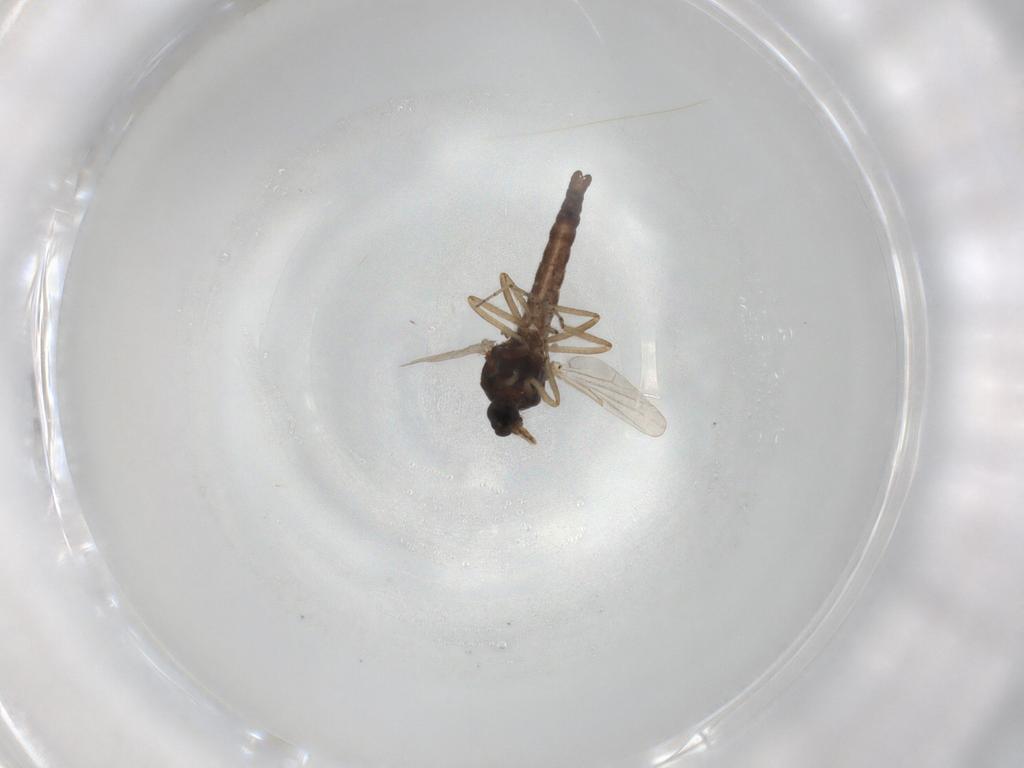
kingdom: Animalia
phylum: Arthropoda
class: Insecta
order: Diptera
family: Ceratopogonidae
